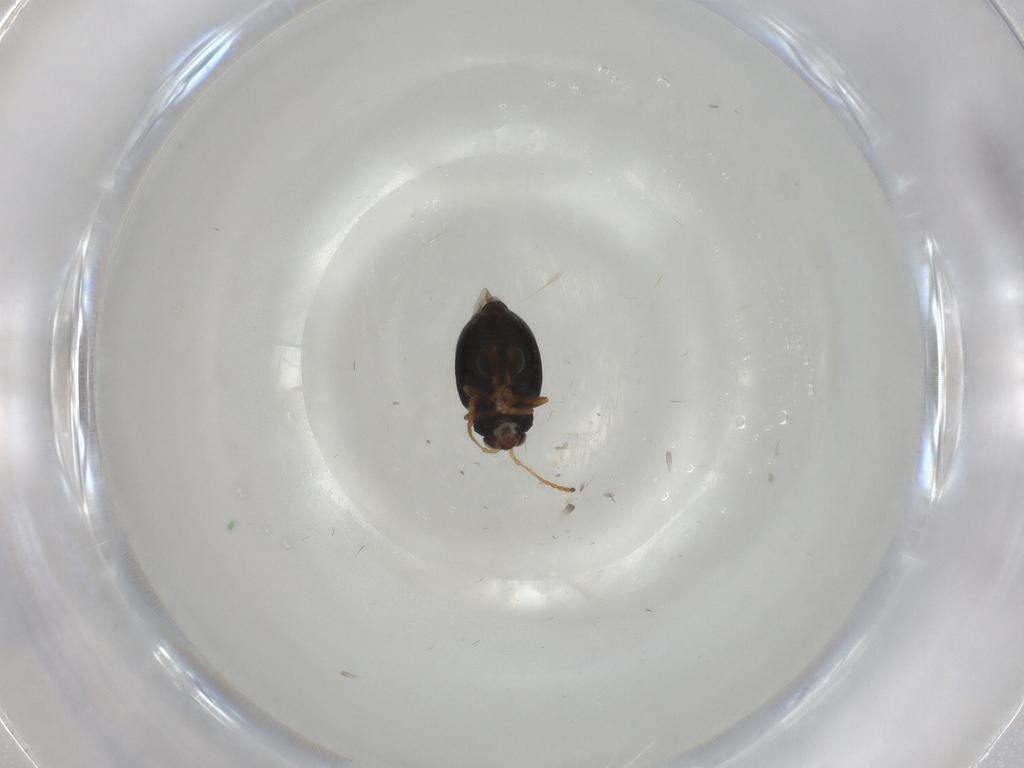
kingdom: Animalia
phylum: Arthropoda
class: Insecta
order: Coleoptera
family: Chrysomelidae
